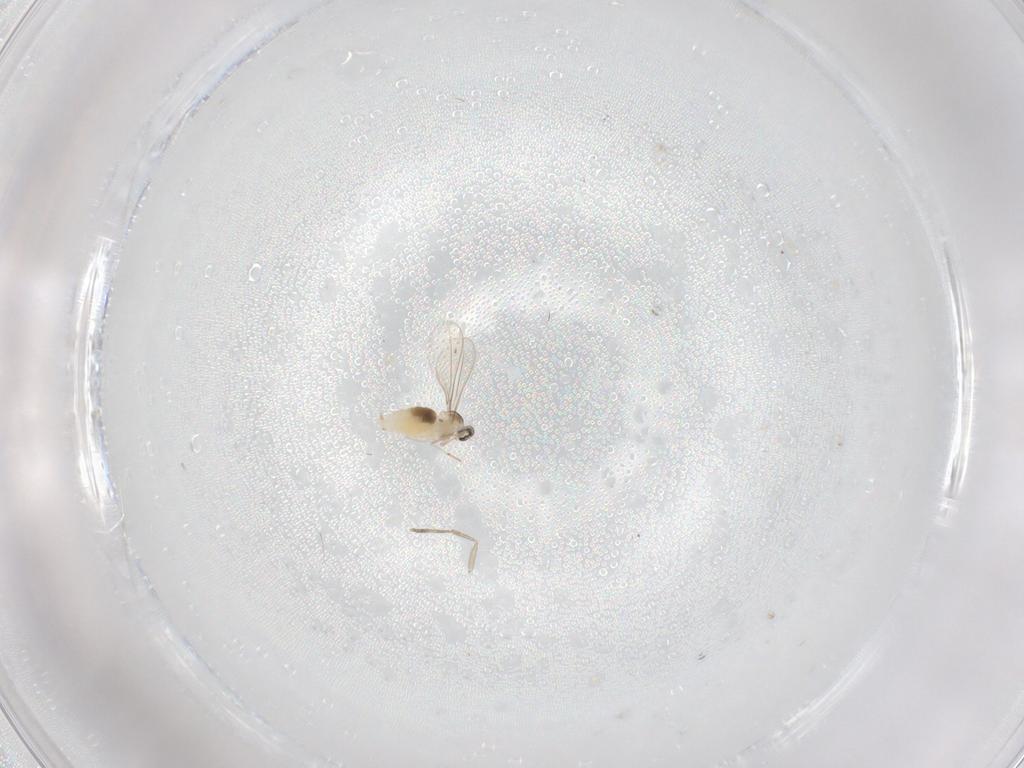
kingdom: Animalia
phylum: Arthropoda
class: Insecta
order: Diptera
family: Cecidomyiidae
